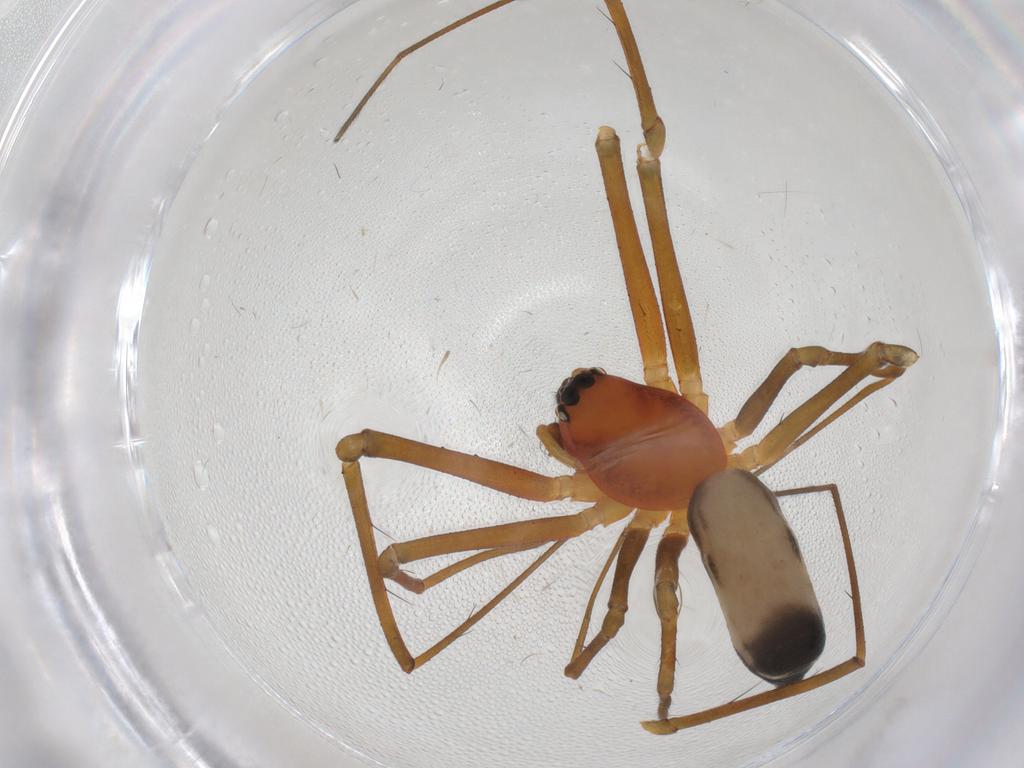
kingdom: Animalia
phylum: Arthropoda
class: Arachnida
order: Araneae
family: Linyphiidae
